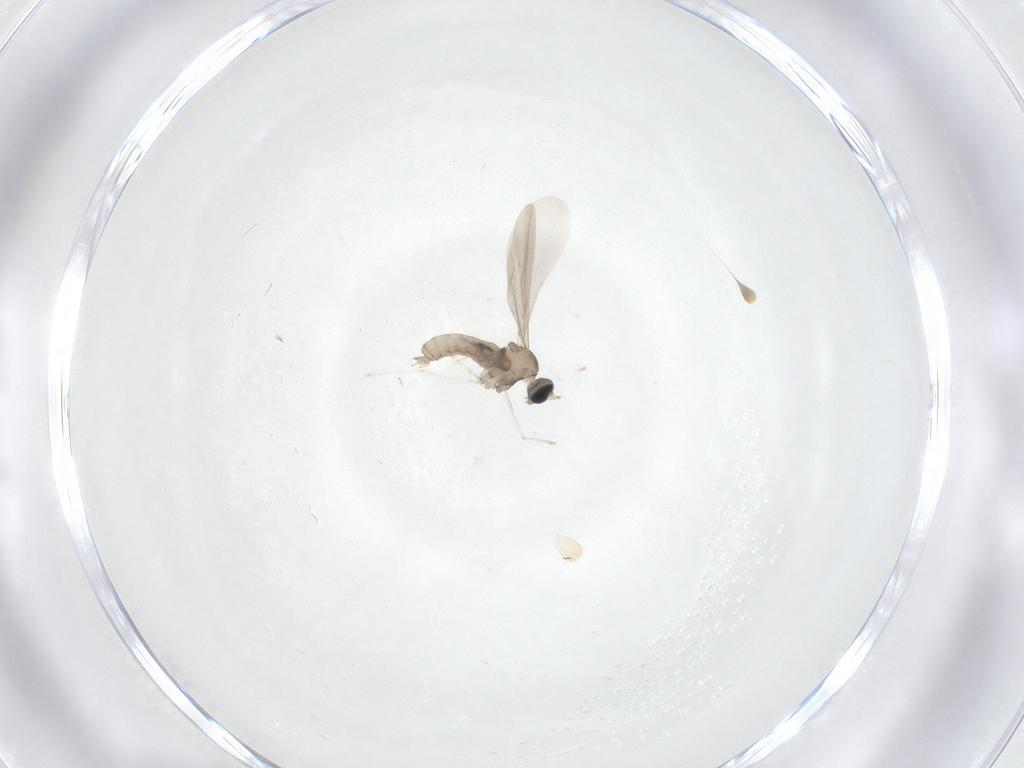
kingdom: Animalia
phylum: Arthropoda
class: Insecta
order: Diptera
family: Cecidomyiidae
